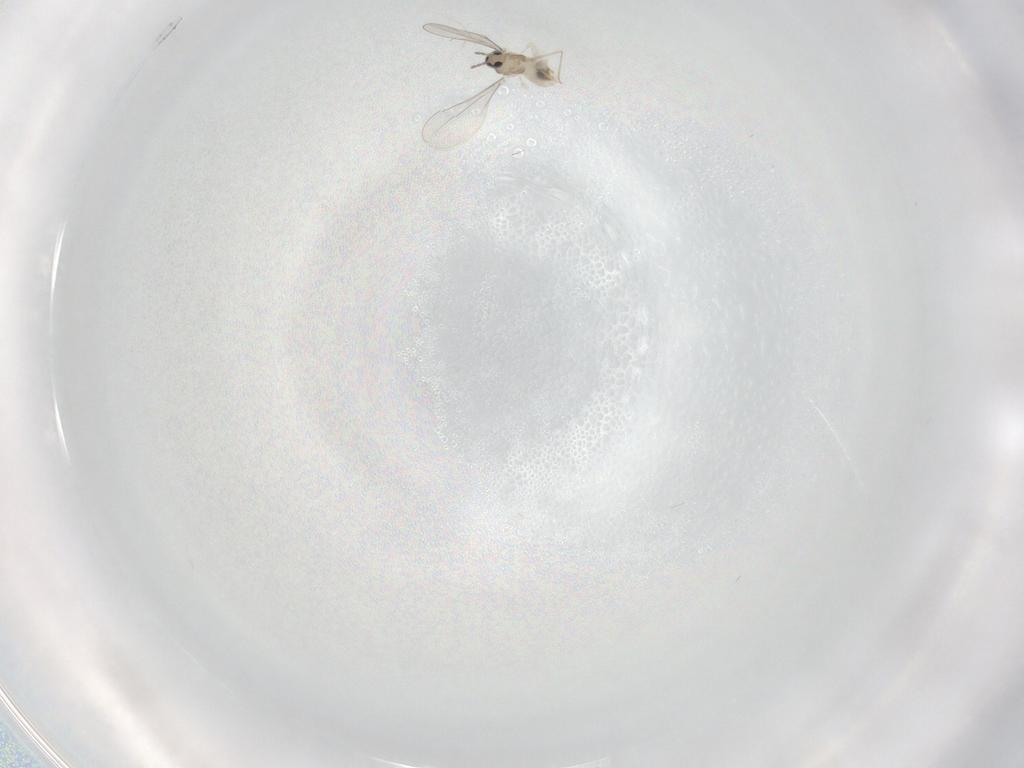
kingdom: Animalia
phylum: Arthropoda
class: Insecta
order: Diptera
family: Cecidomyiidae
